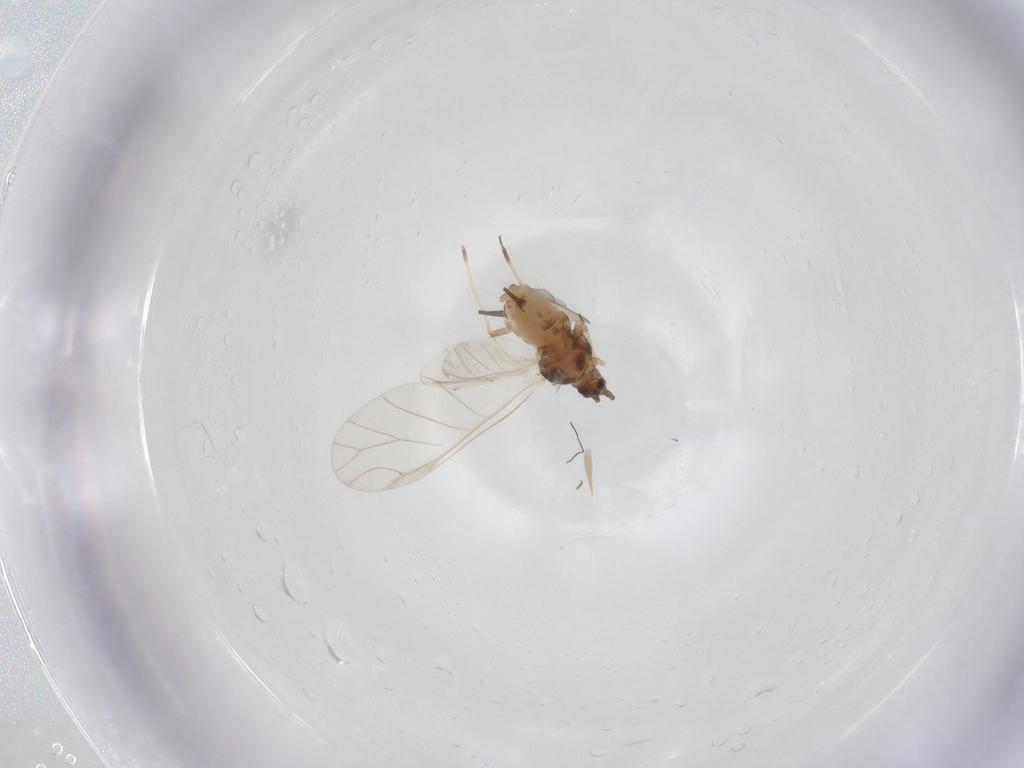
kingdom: Animalia
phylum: Arthropoda
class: Insecta
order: Hemiptera
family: Aphididae
